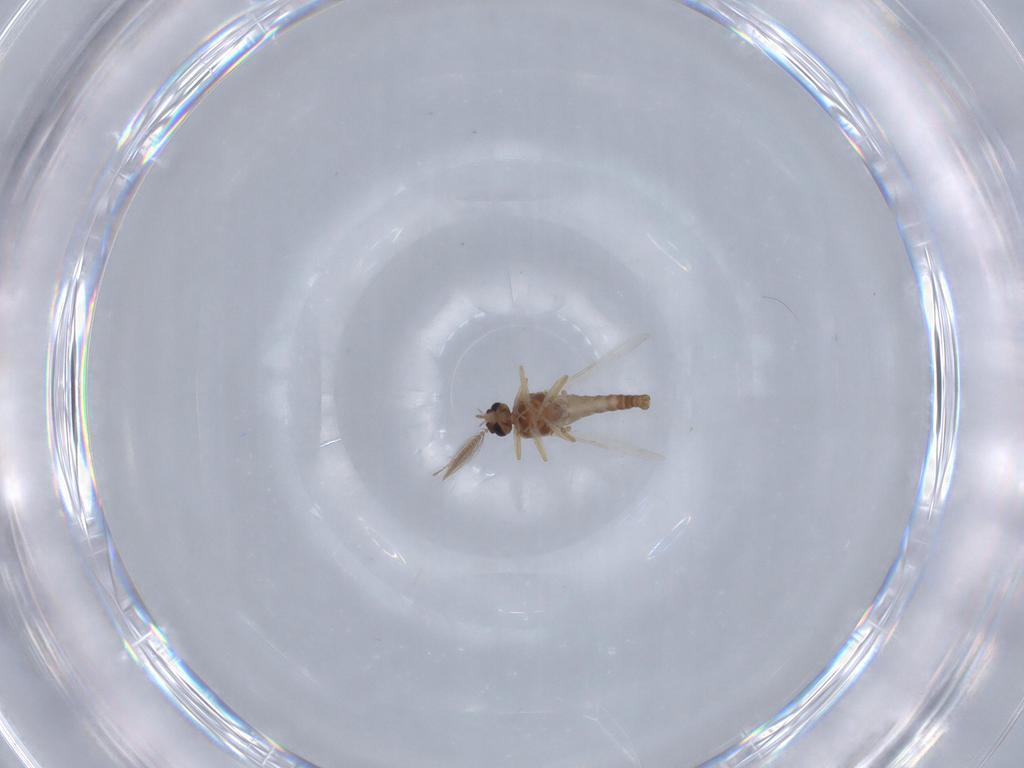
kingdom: Animalia
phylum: Arthropoda
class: Insecta
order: Diptera
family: Ceratopogonidae
